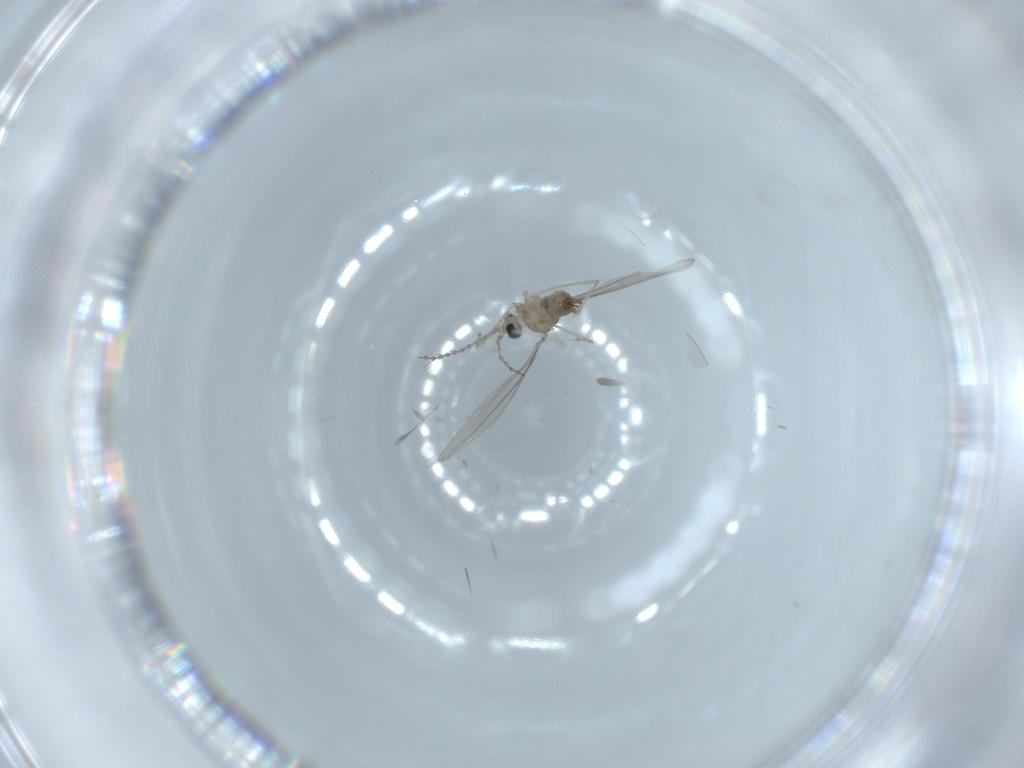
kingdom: Animalia
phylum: Arthropoda
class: Insecta
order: Diptera
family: Cecidomyiidae
